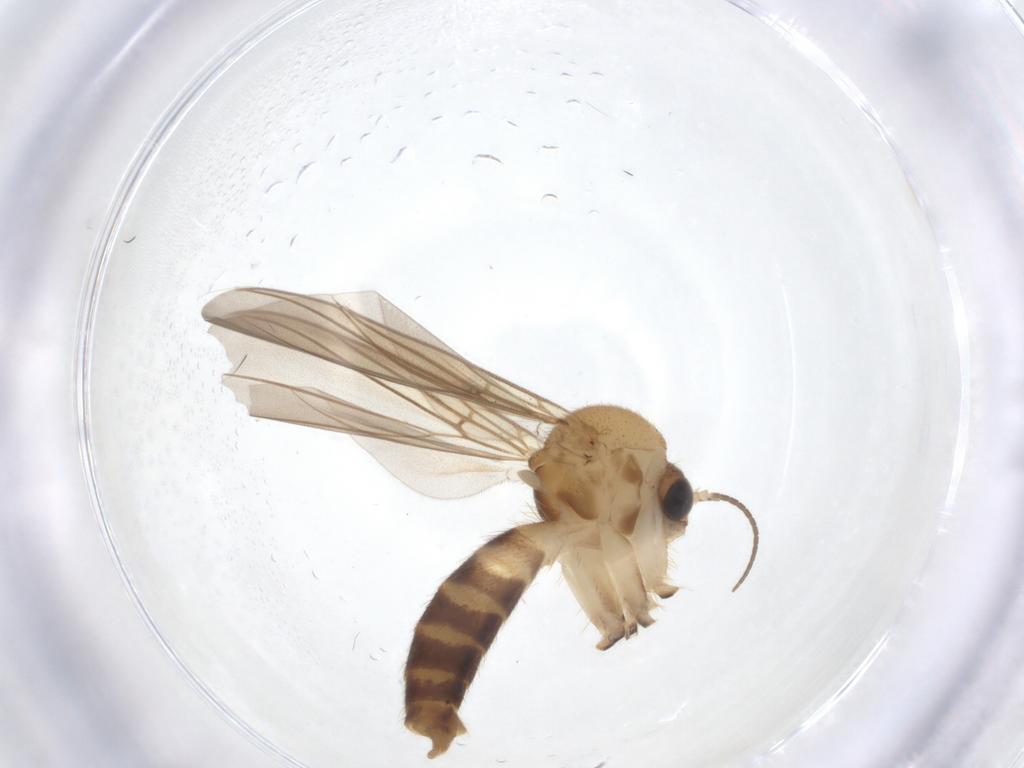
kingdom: Animalia
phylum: Arthropoda
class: Insecta
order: Diptera
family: Mycetophilidae
